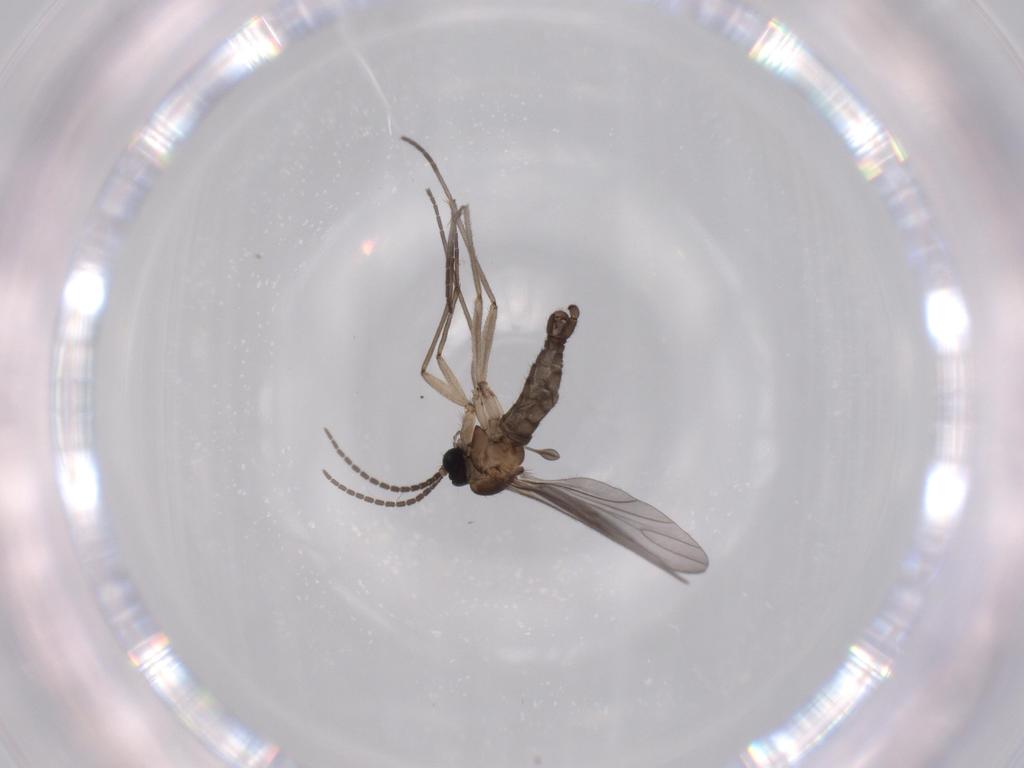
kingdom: Animalia
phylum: Arthropoda
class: Insecta
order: Diptera
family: Sciaridae
